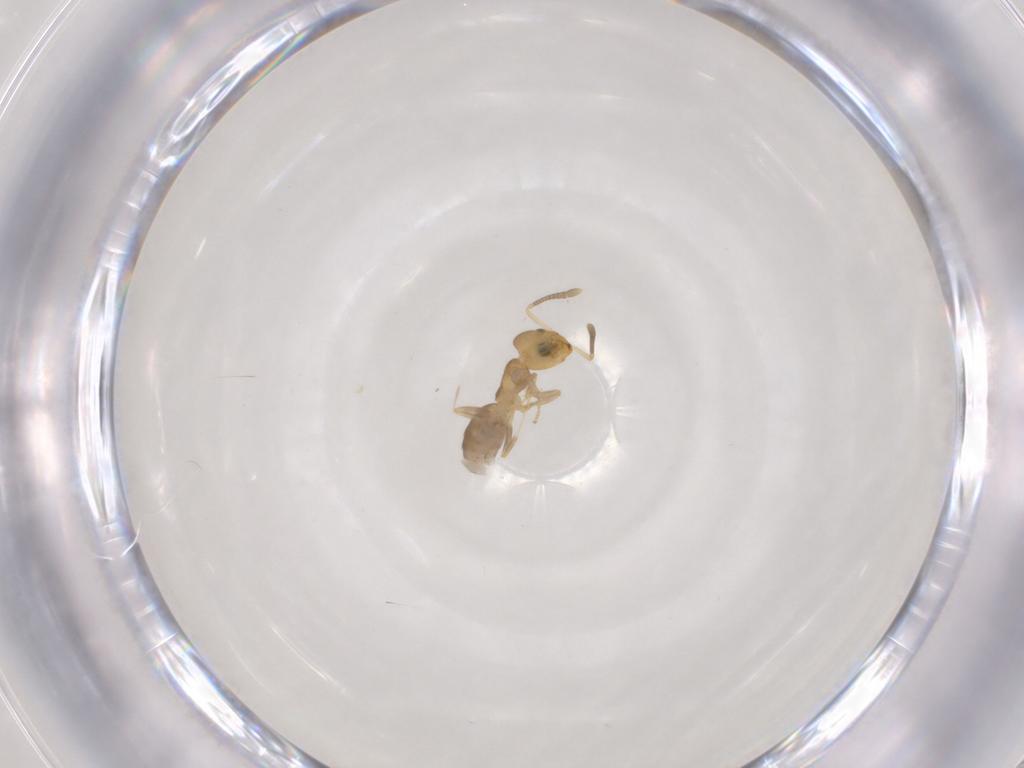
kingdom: Animalia
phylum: Arthropoda
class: Insecta
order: Hymenoptera
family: Formicidae
